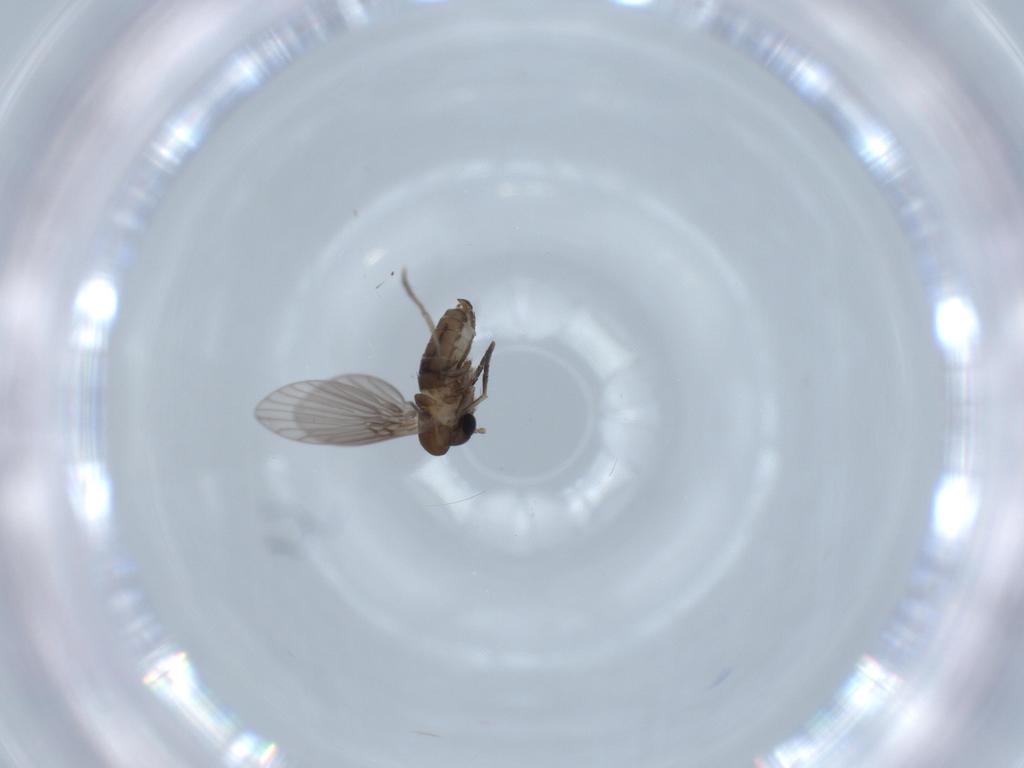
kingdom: Animalia
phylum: Arthropoda
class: Insecta
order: Diptera
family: Psychodidae
